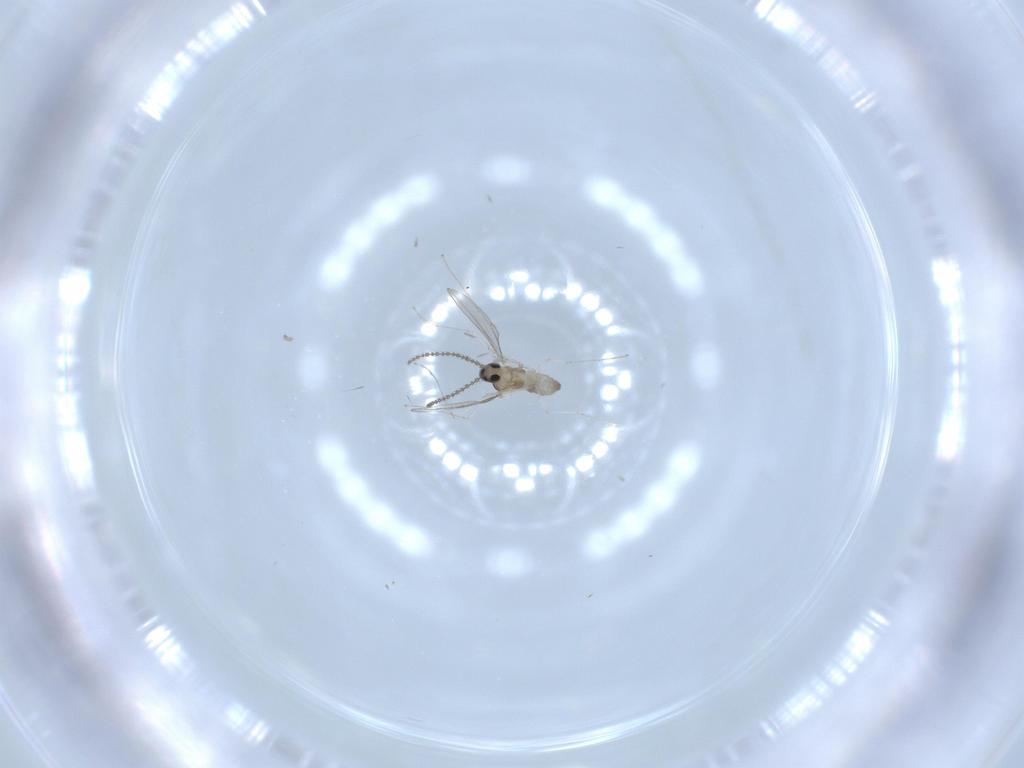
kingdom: Animalia
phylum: Arthropoda
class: Insecta
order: Diptera
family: Cecidomyiidae
